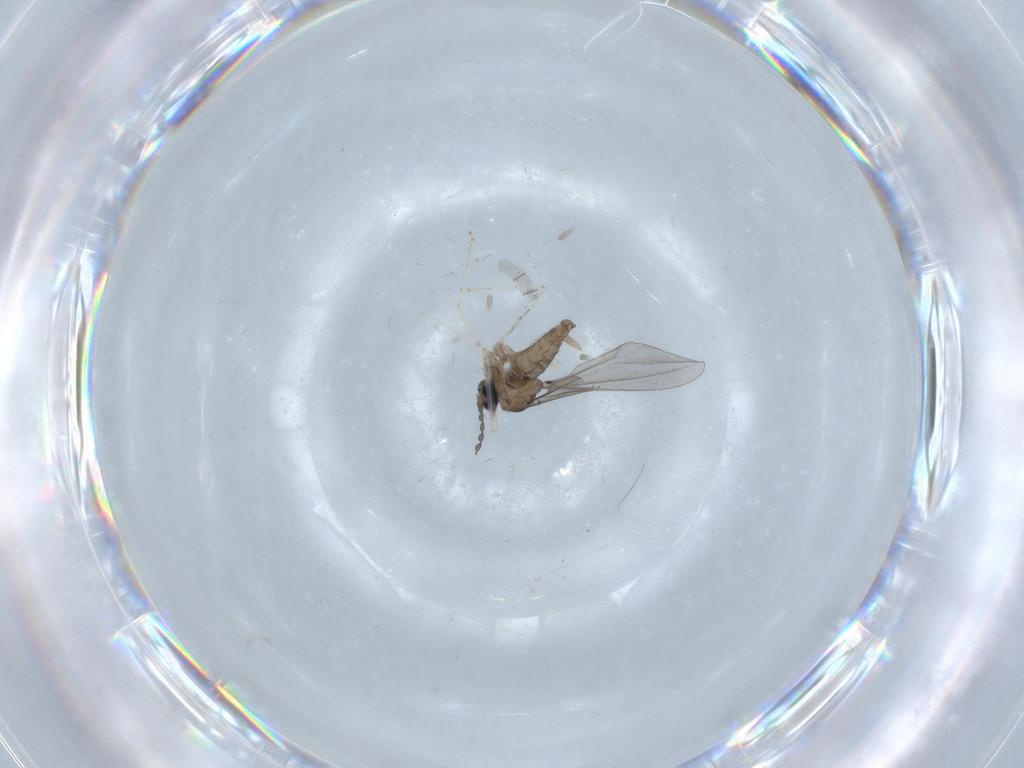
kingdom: Animalia
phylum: Arthropoda
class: Insecta
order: Diptera
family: Cecidomyiidae
